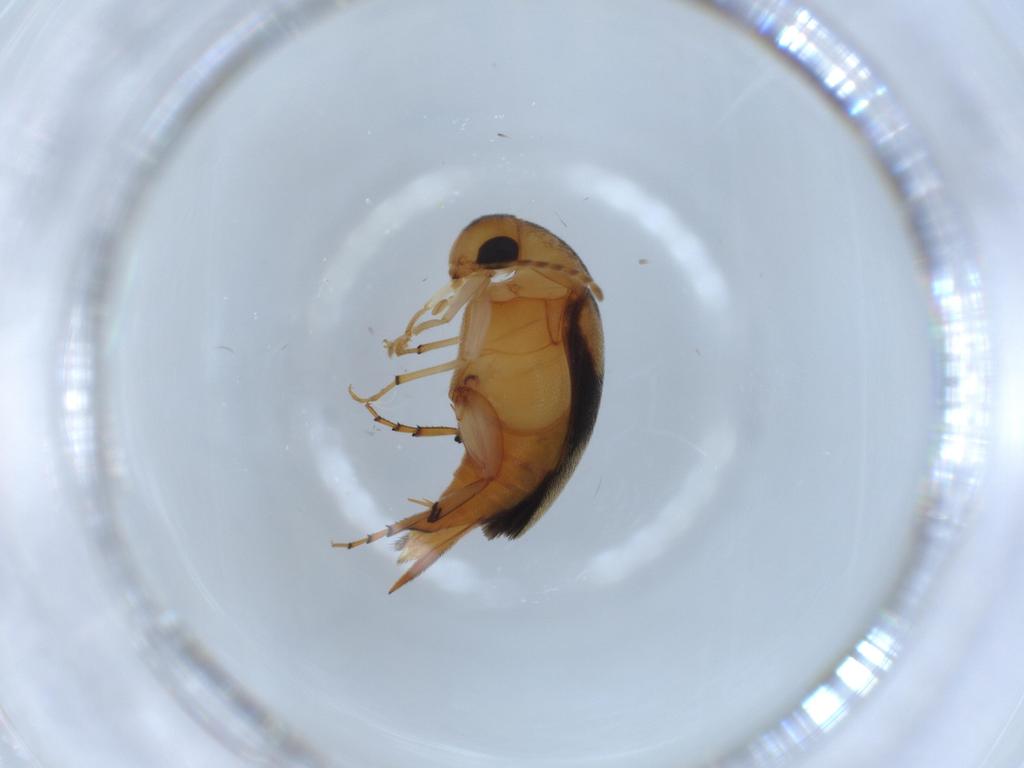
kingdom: Animalia
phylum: Arthropoda
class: Insecta
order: Coleoptera
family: Mordellidae
